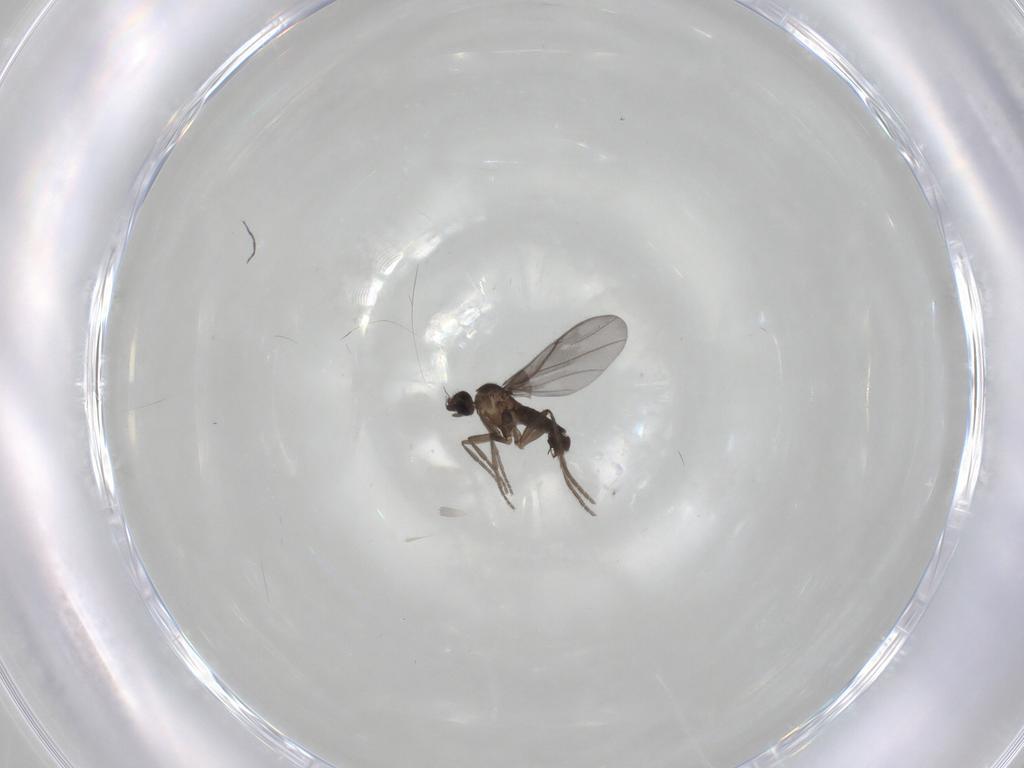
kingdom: Animalia
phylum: Arthropoda
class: Insecta
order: Diptera
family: Phoridae
